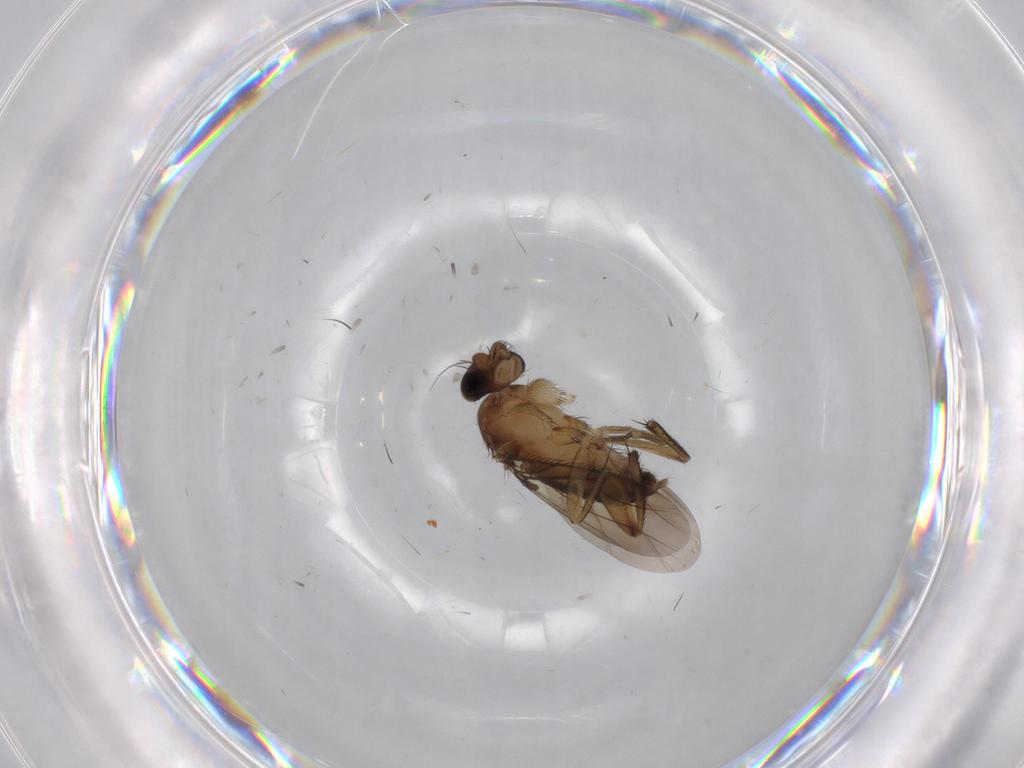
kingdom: Animalia
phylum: Arthropoda
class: Insecta
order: Diptera
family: Phoridae
